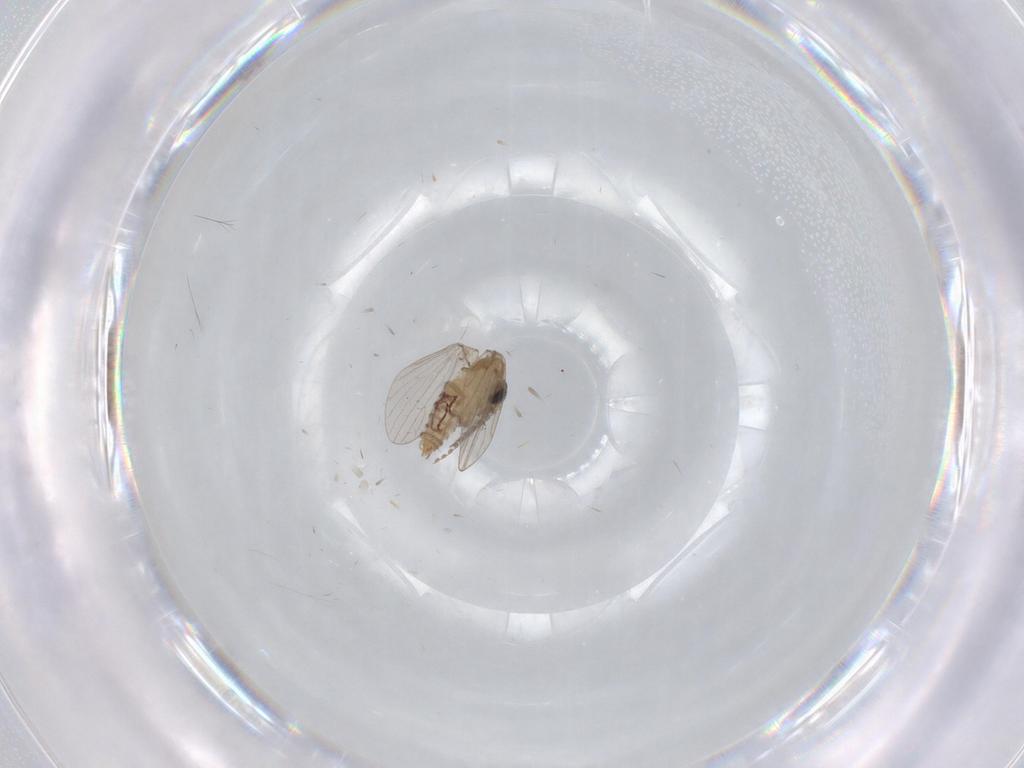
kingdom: Animalia
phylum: Arthropoda
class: Insecta
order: Diptera
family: Psychodidae
